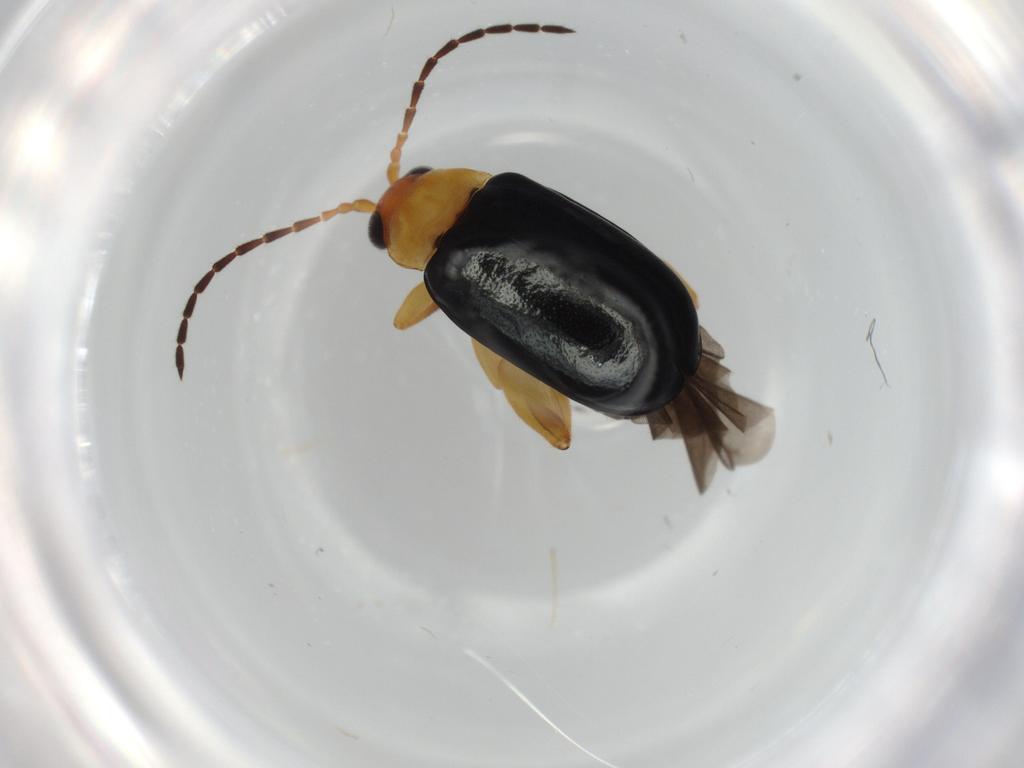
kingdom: Animalia
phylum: Arthropoda
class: Insecta
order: Coleoptera
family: Chrysomelidae
